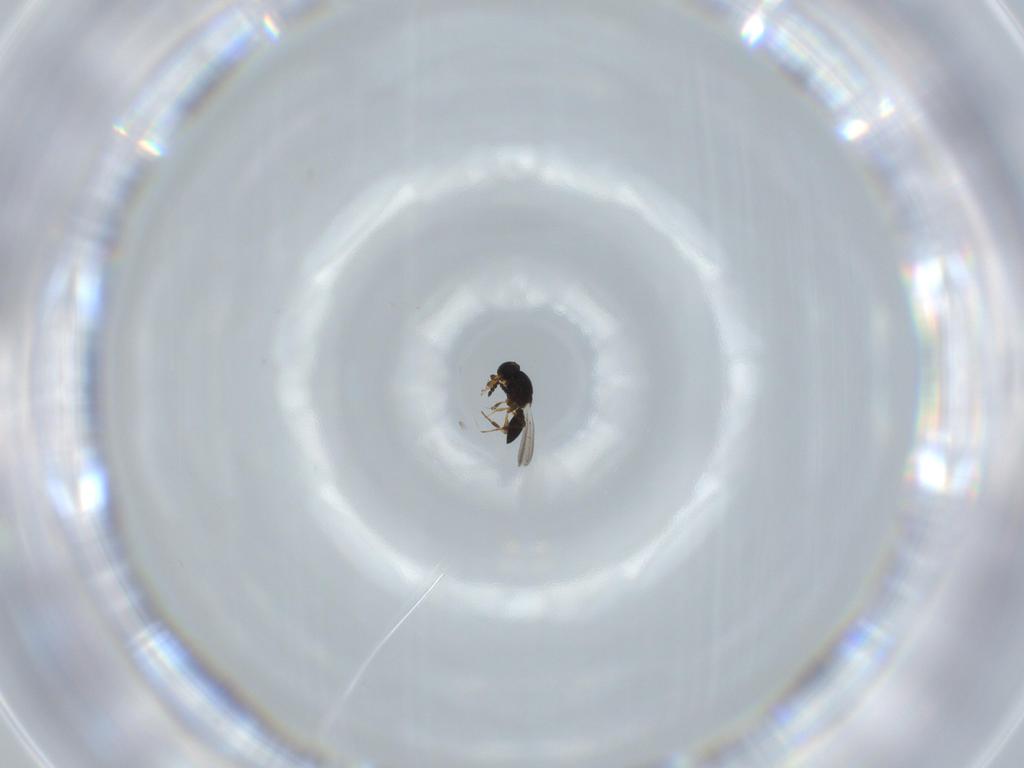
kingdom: Animalia
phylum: Arthropoda
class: Insecta
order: Hymenoptera
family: Platygastridae
